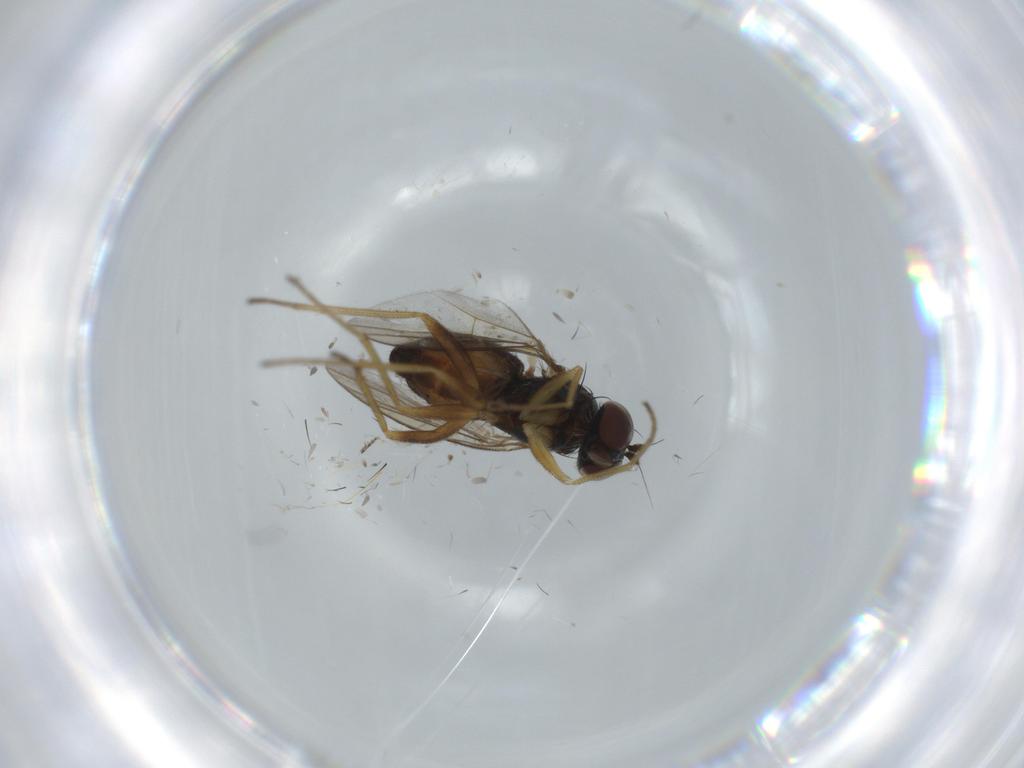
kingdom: Animalia
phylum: Arthropoda
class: Insecta
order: Diptera
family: Dolichopodidae
